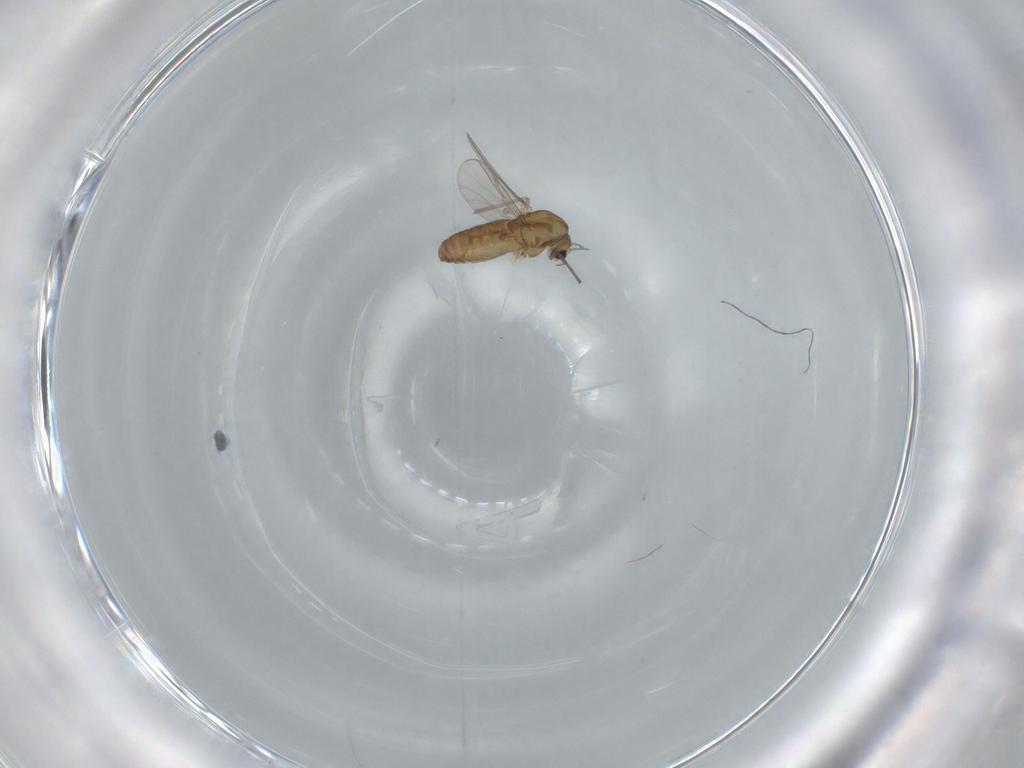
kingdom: Animalia
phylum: Arthropoda
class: Insecta
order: Diptera
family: Chironomidae
